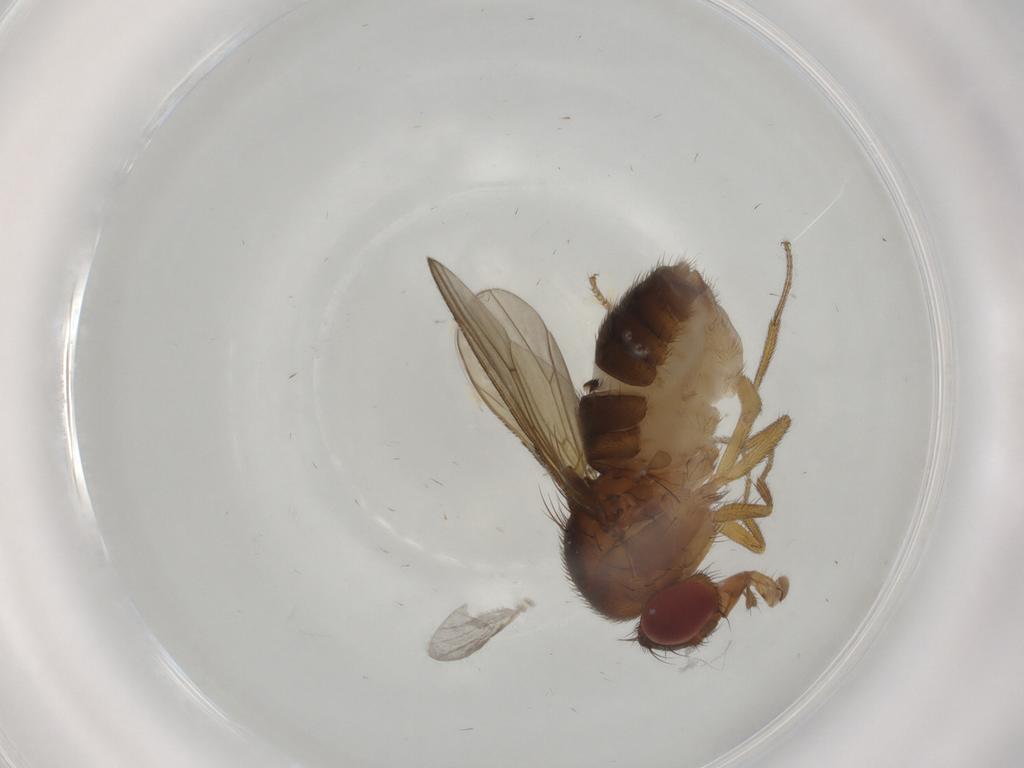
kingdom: Animalia
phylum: Arthropoda
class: Insecta
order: Diptera
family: Drosophilidae
